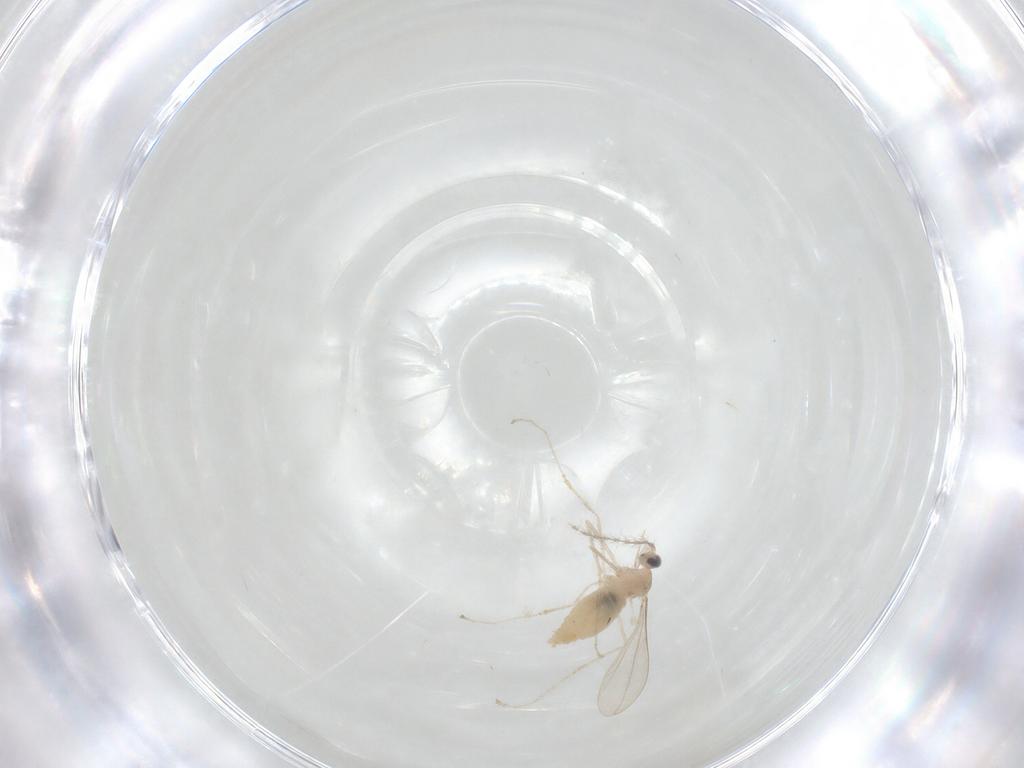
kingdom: Animalia
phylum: Arthropoda
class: Insecta
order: Diptera
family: Cecidomyiidae
